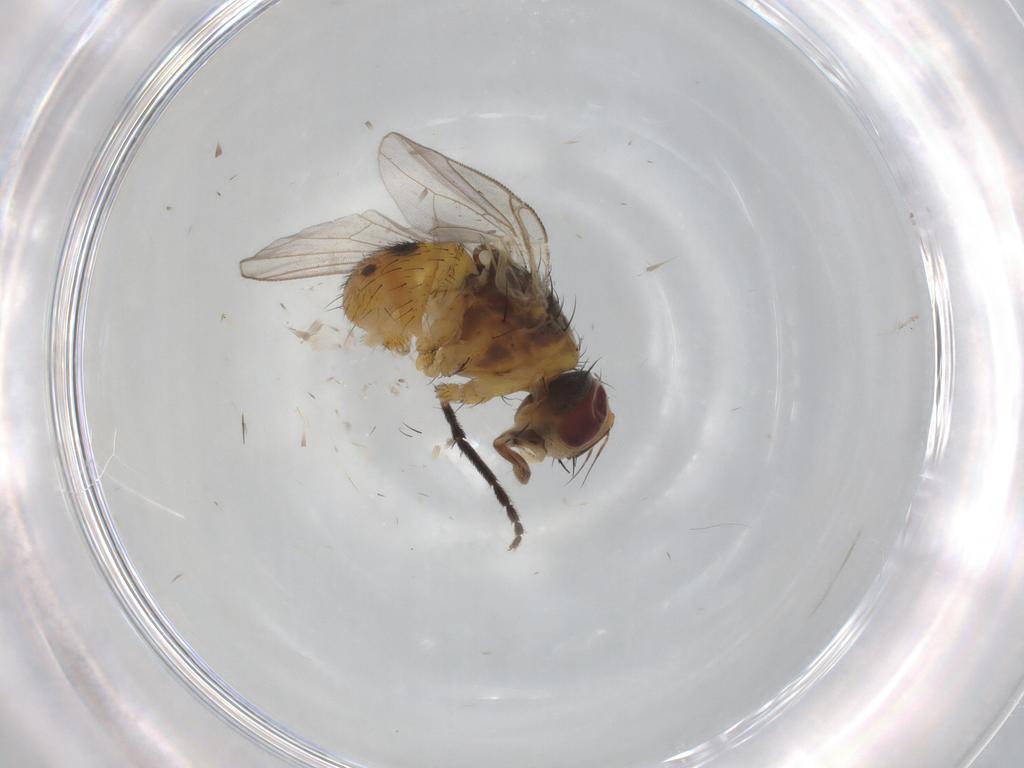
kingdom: Animalia
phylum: Arthropoda
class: Insecta
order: Diptera
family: Muscidae
